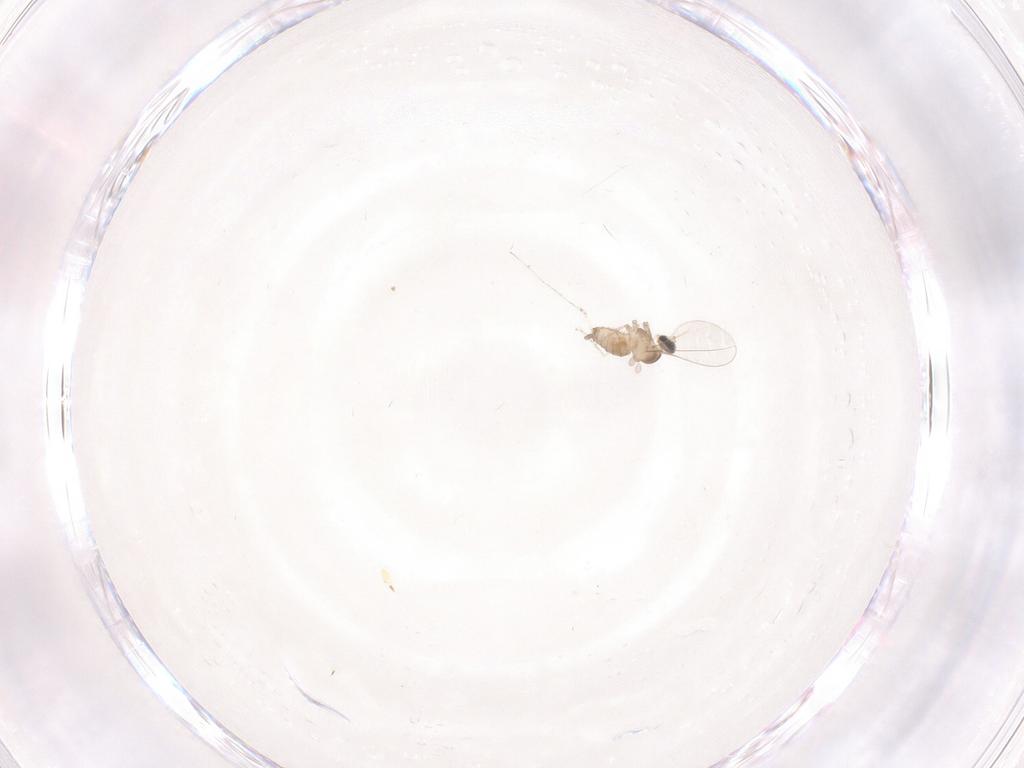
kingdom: Animalia
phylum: Arthropoda
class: Insecta
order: Diptera
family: Cecidomyiidae
